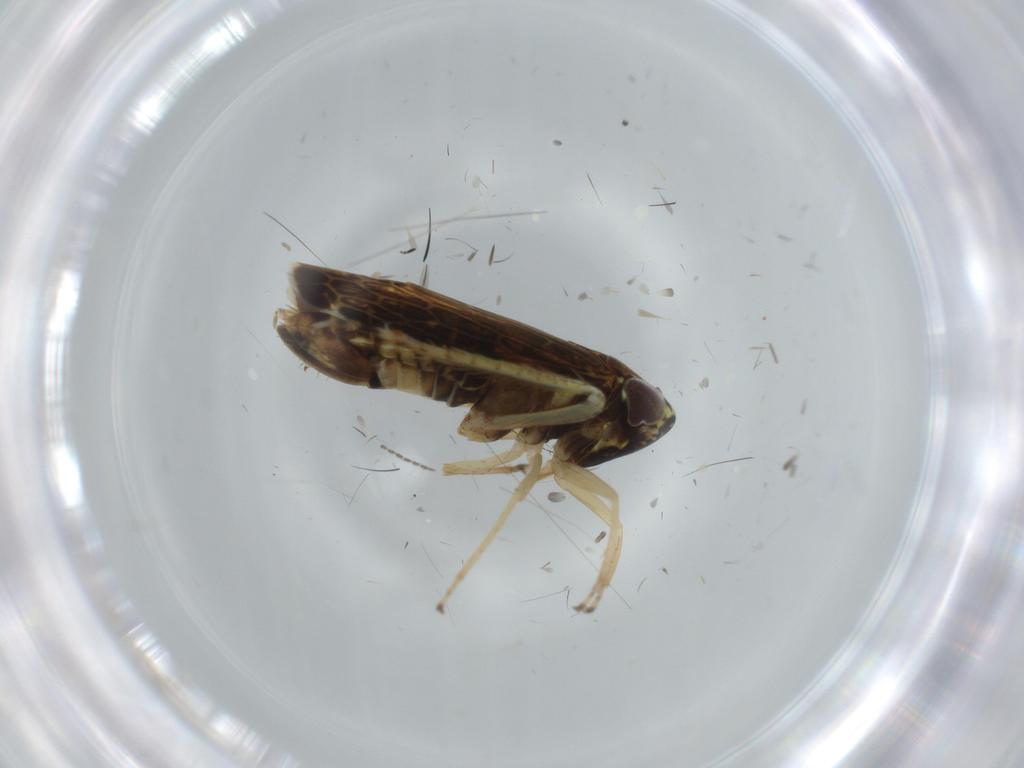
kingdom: Animalia
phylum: Arthropoda
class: Insecta
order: Hemiptera
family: Cicadellidae
